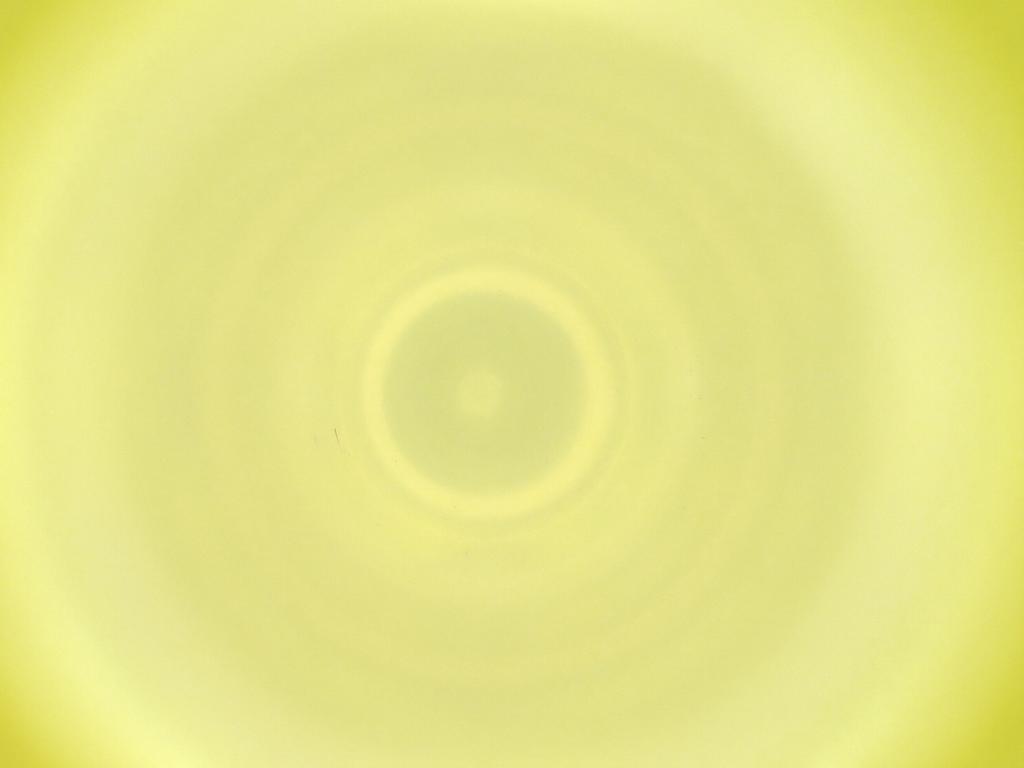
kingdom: Animalia
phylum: Arthropoda
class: Insecta
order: Diptera
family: Cecidomyiidae
